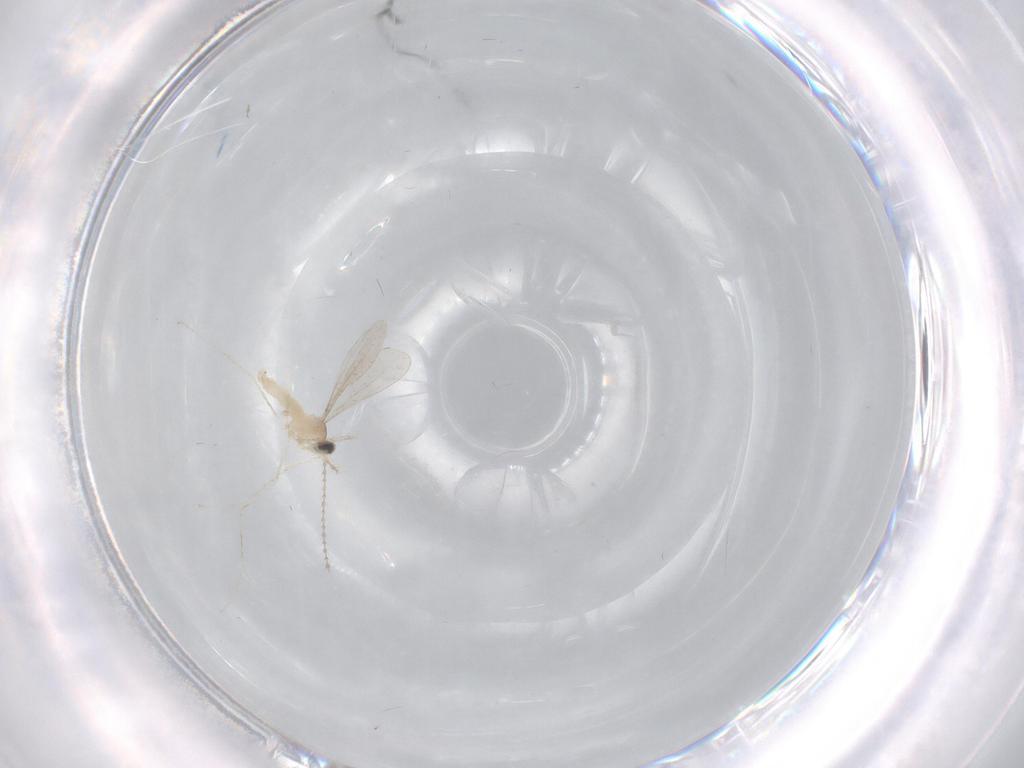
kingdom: Animalia
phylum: Arthropoda
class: Insecta
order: Diptera
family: Cecidomyiidae
